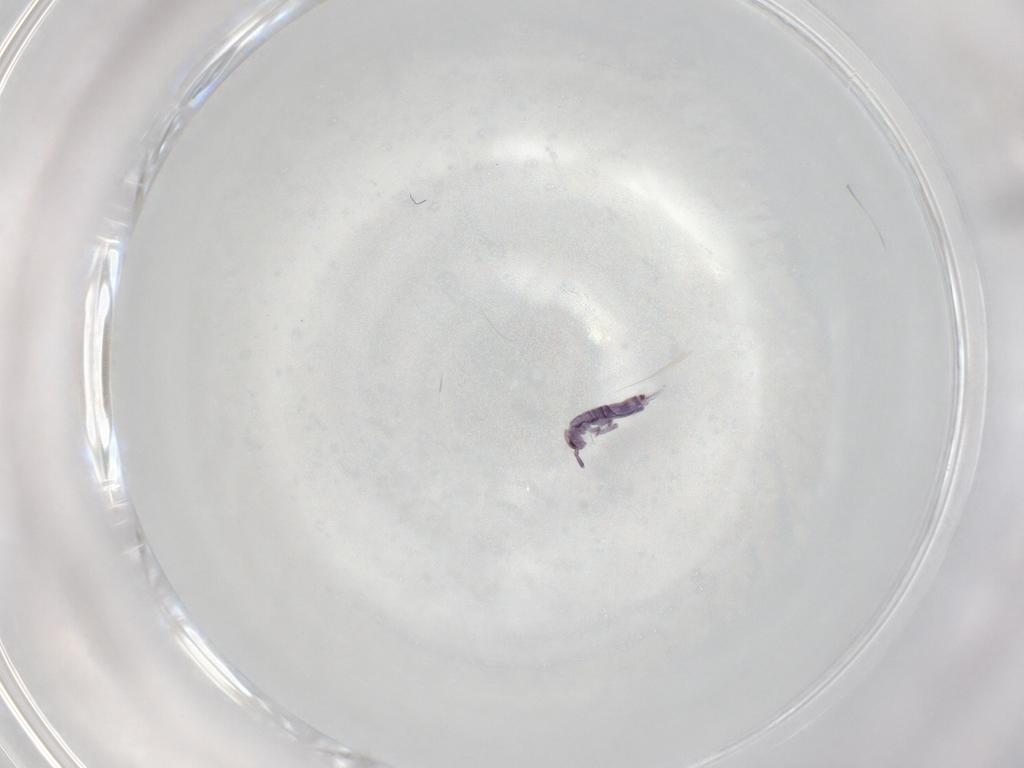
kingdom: Animalia
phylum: Arthropoda
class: Collembola
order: Entomobryomorpha
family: Entomobryidae
